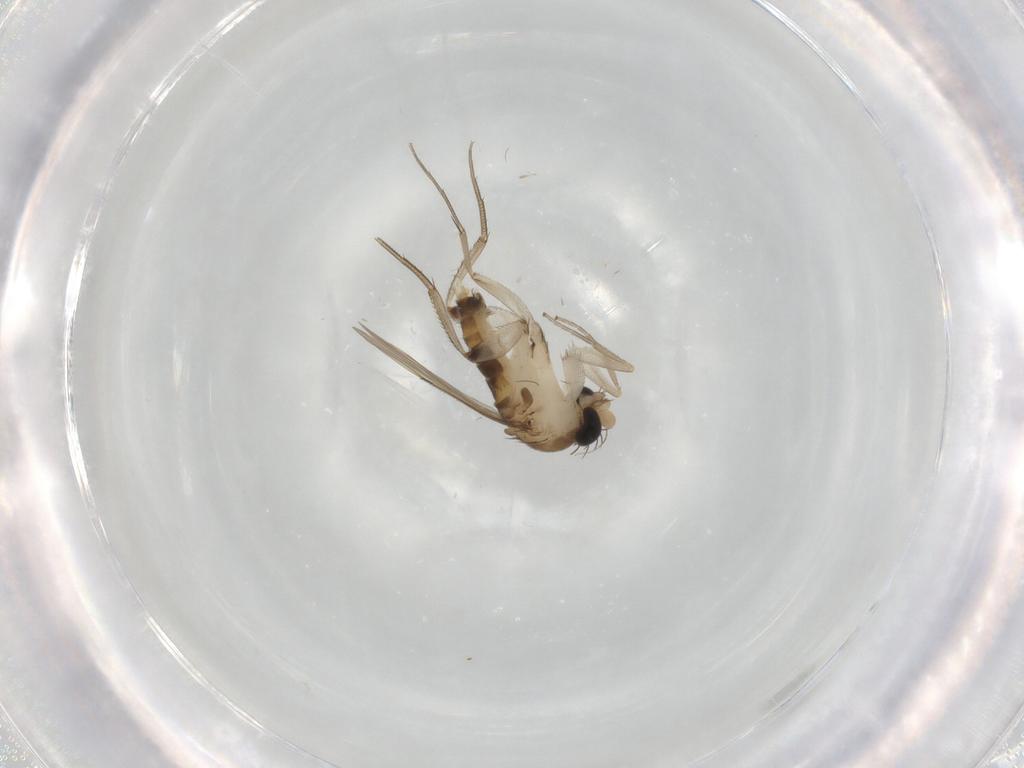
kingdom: Animalia
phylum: Arthropoda
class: Insecta
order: Diptera
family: Phoridae
